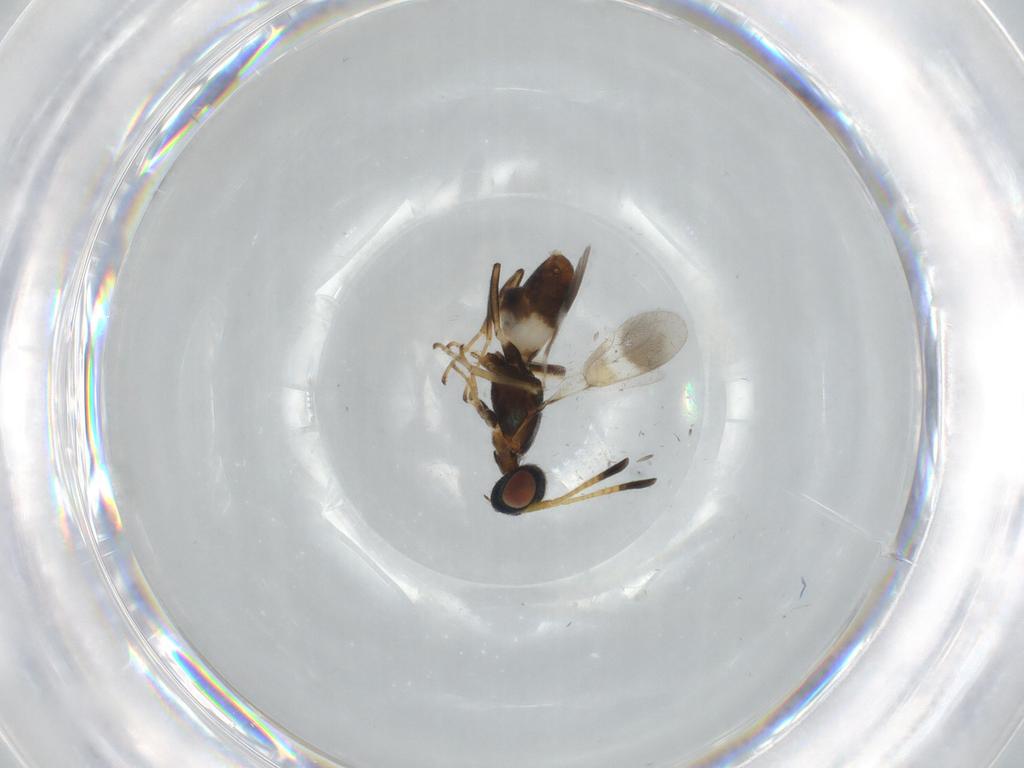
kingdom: Animalia
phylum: Arthropoda
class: Insecta
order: Hymenoptera
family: Eupelmidae
